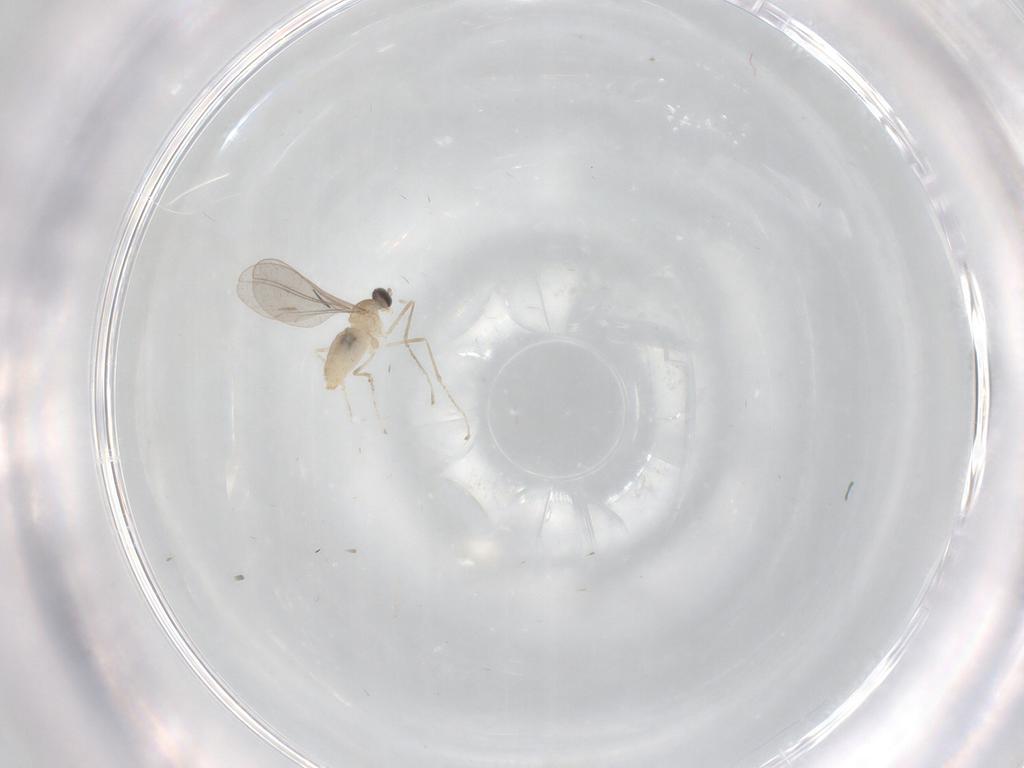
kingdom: Animalia
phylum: Arthropoda
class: Insecta
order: Diptera
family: Cecidomyiidae
